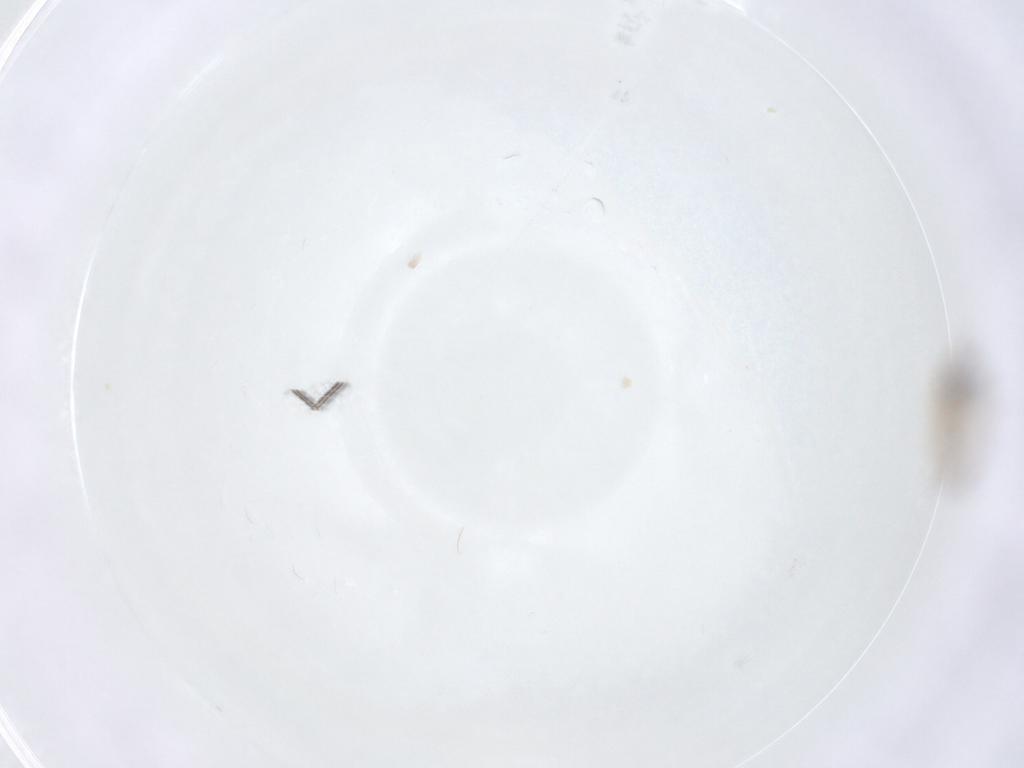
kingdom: Animalia
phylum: Arthropoda
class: Insecta
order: Diptera
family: Cecidomyiidae
